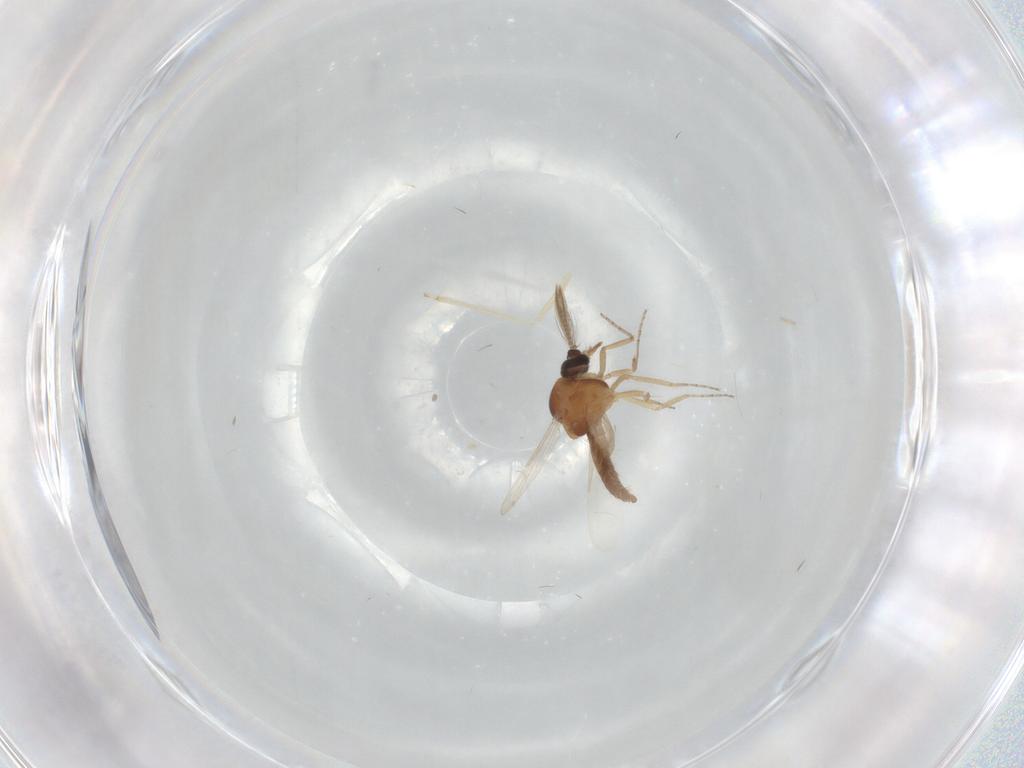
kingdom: Animalia
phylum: Arthropoda
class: Insecta
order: Diptera
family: Ceratopogonidae
